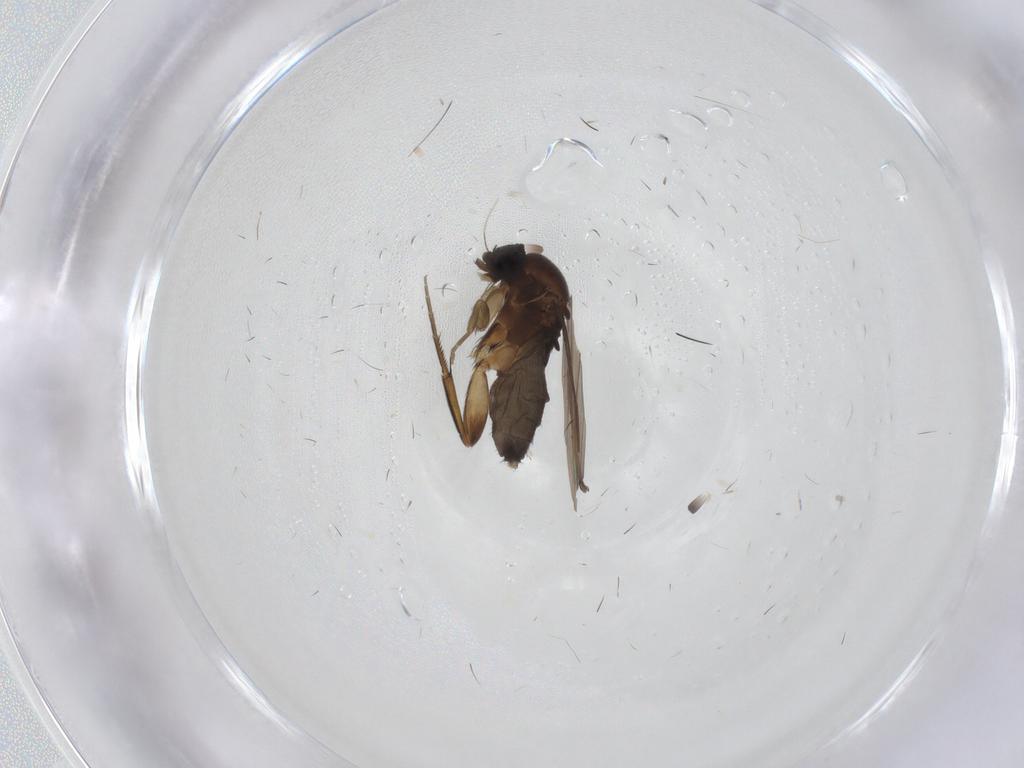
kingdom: Animalia
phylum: Arthropoda
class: Insecta
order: Diptera
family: Phoridae
